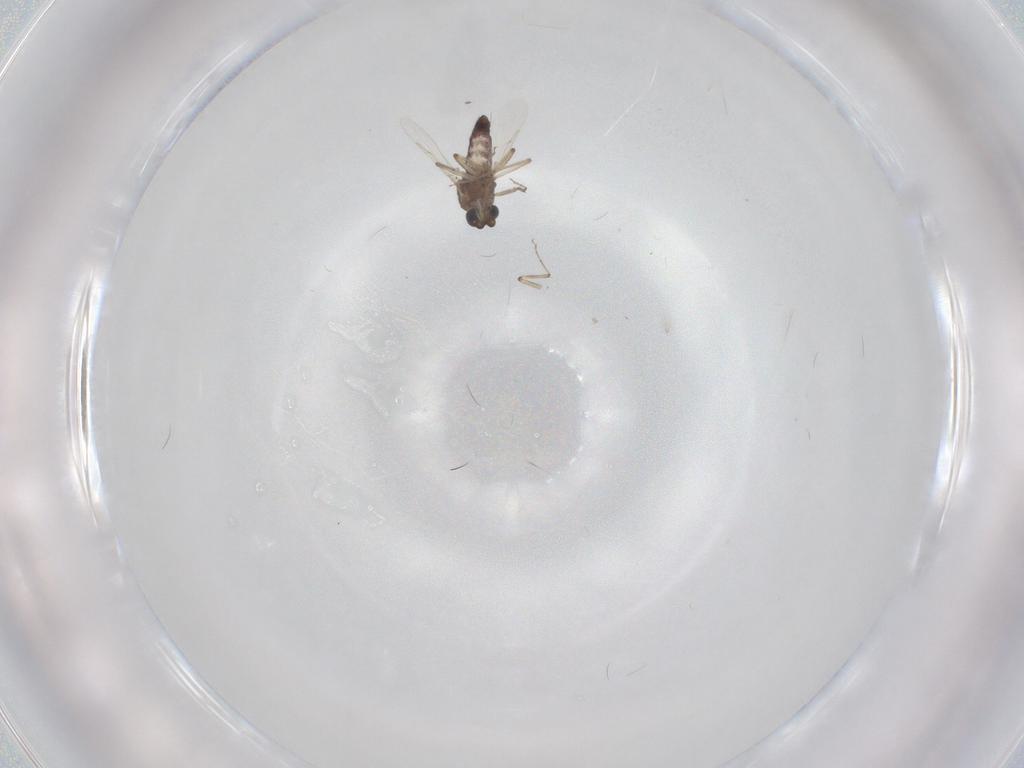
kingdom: Animalia
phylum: Arthropoda
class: Insecta
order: Diptera
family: Ceratopogonidae
